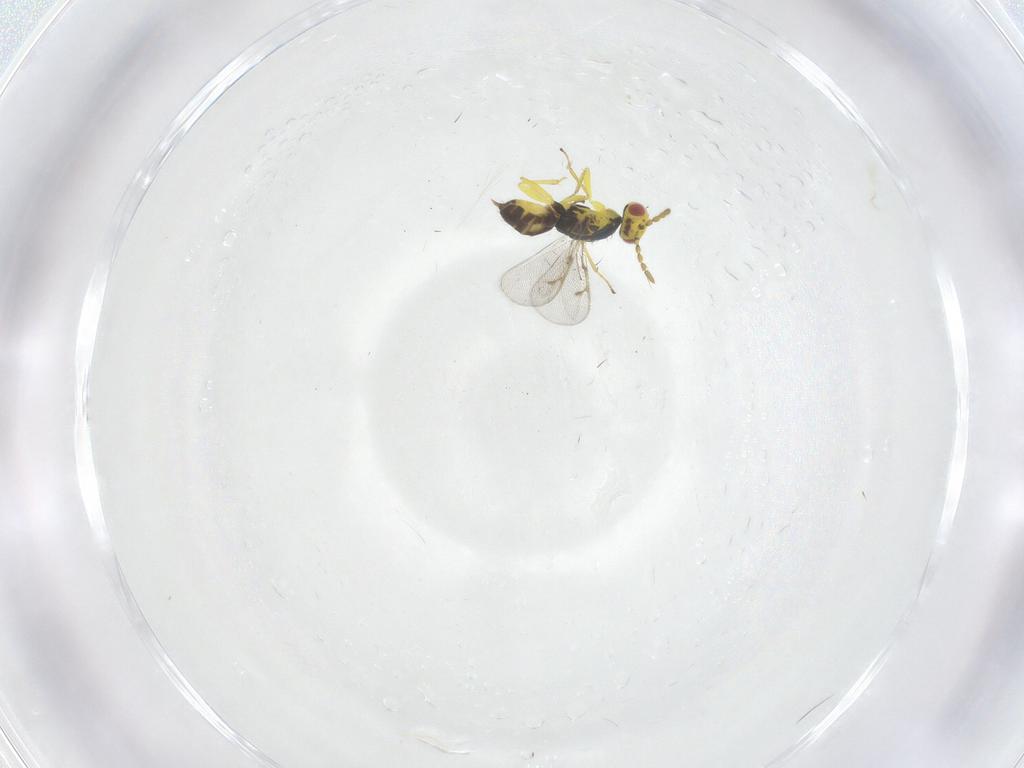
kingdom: Animalia
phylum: Arthropoda
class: Insecta
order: Hymenoptera
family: Eulophidae
